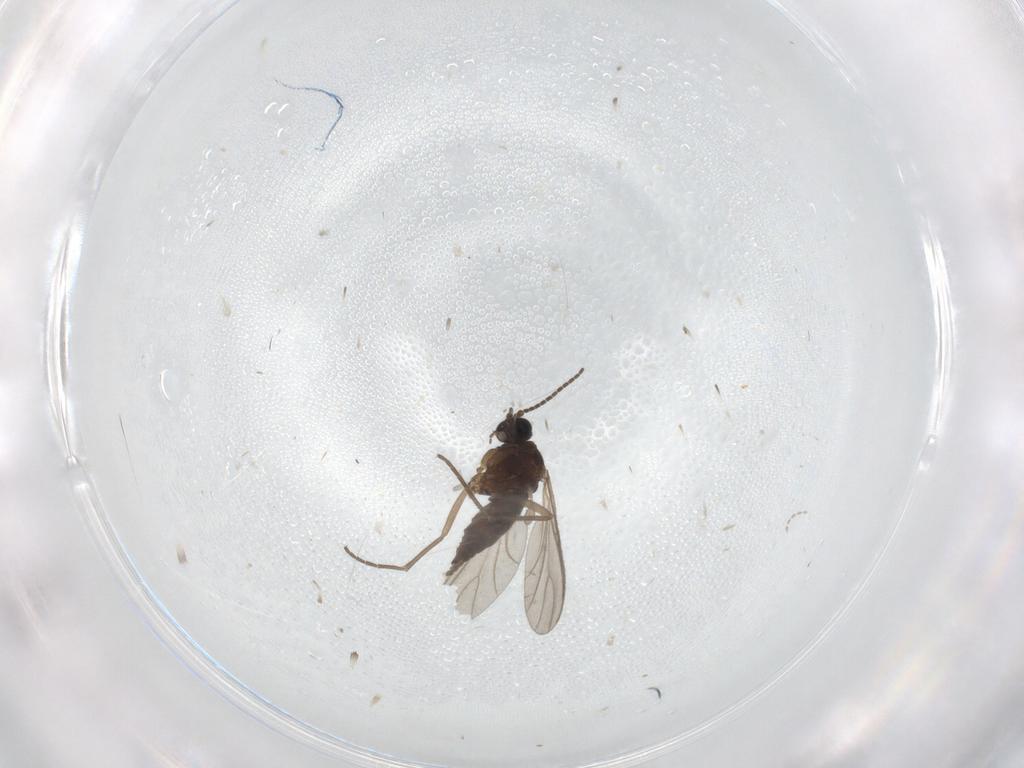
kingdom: Animalia
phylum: Arthropoda
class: Insecta
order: Diptera
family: Sciaridae
